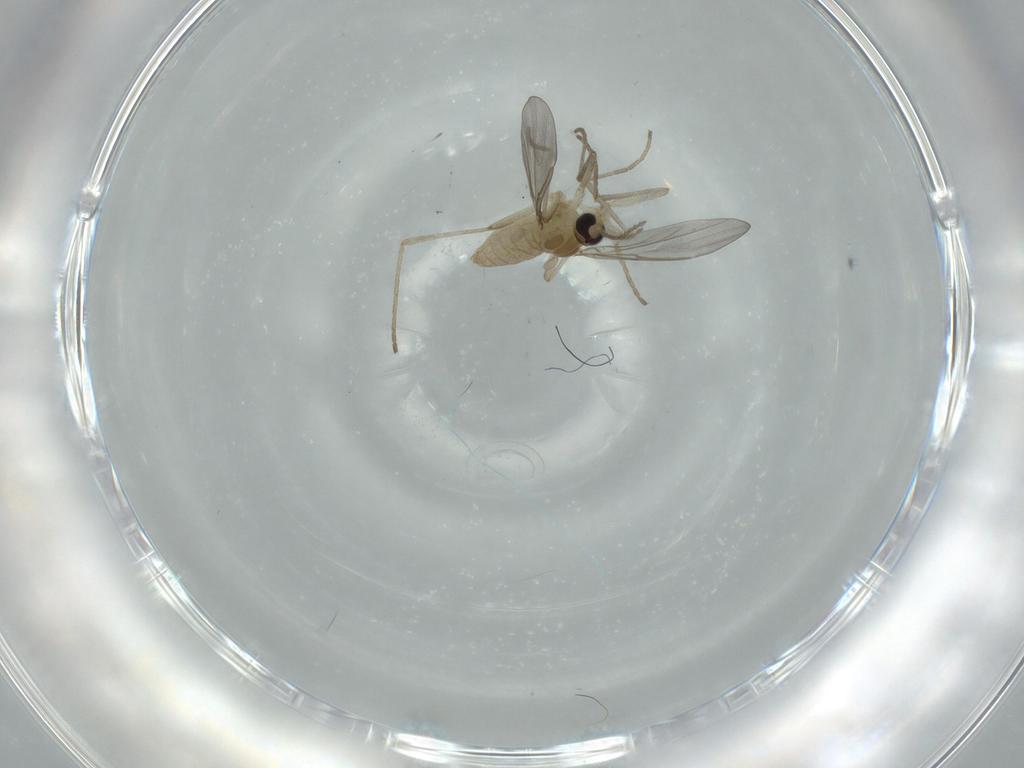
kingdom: Animalia
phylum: Arthropoda
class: Insecta
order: Diptera
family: Cecidomyiidae
